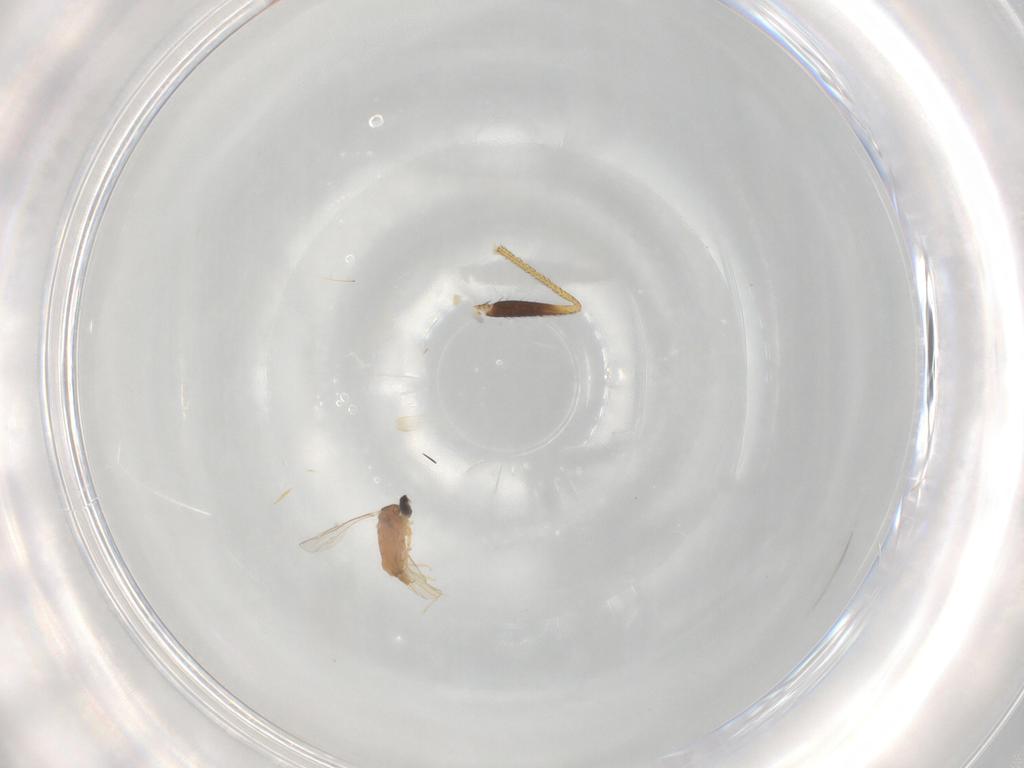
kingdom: Animalia
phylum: Arthropoda
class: Insecta
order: Diptera
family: Cecidomyiidae
